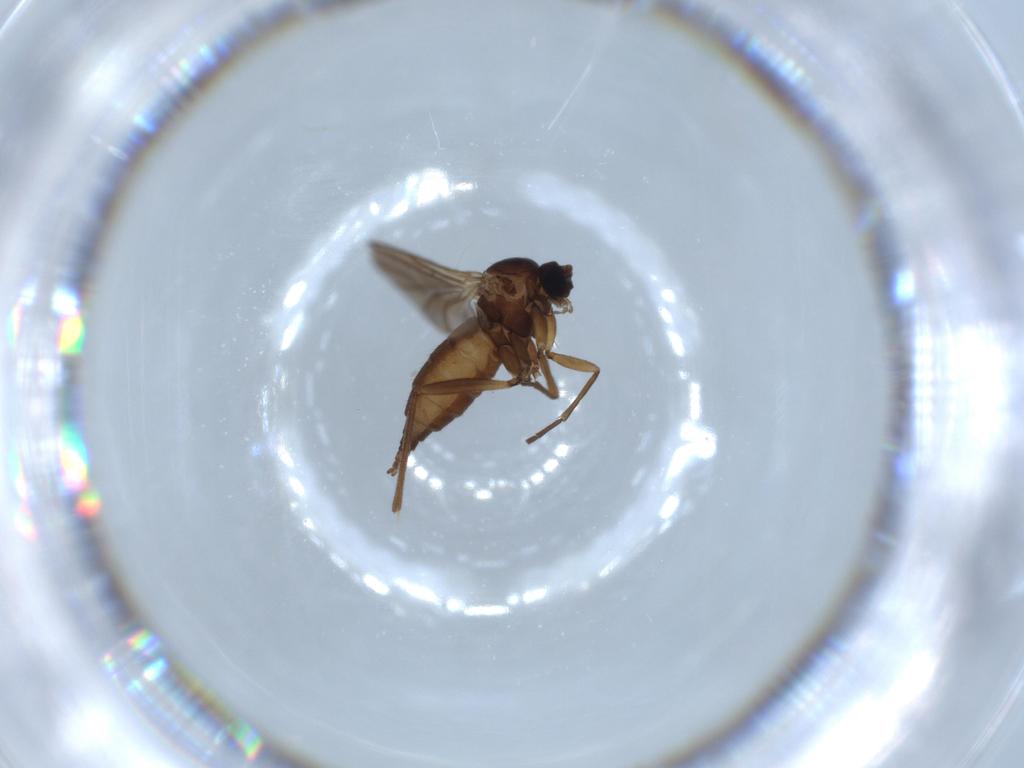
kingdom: Animalia
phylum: Arthropoda
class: Insecta
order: Diptera
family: Sciaridae
